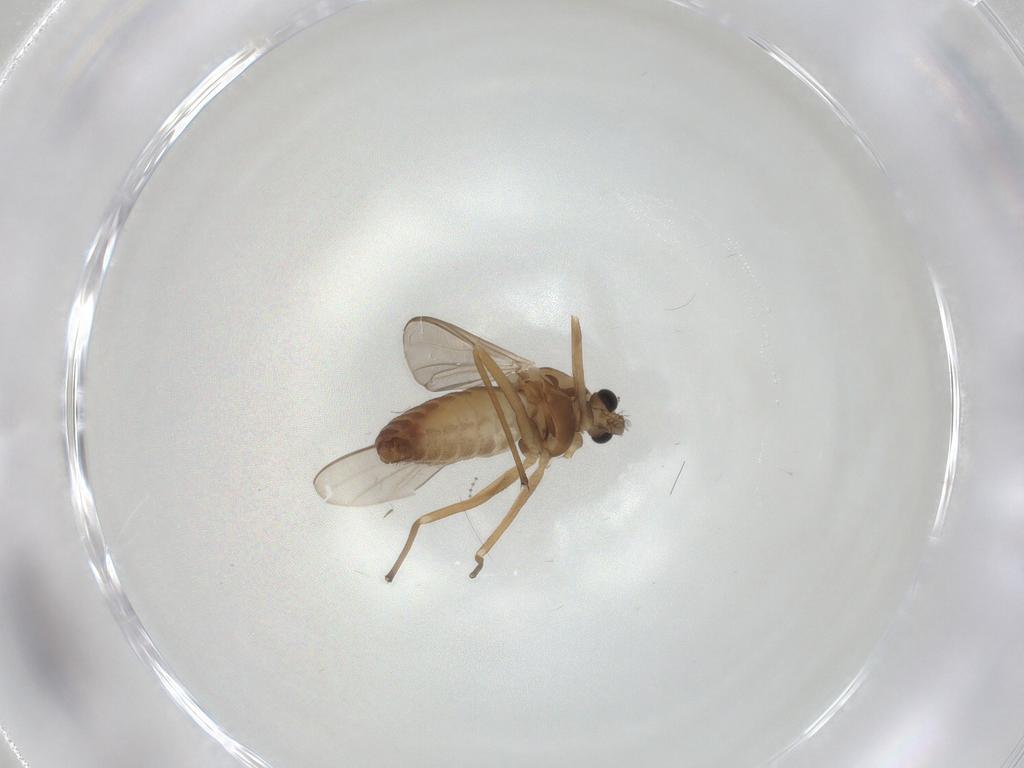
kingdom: Animalia
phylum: Arthropoda
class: Insecta
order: Diptera
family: Chironomidae
